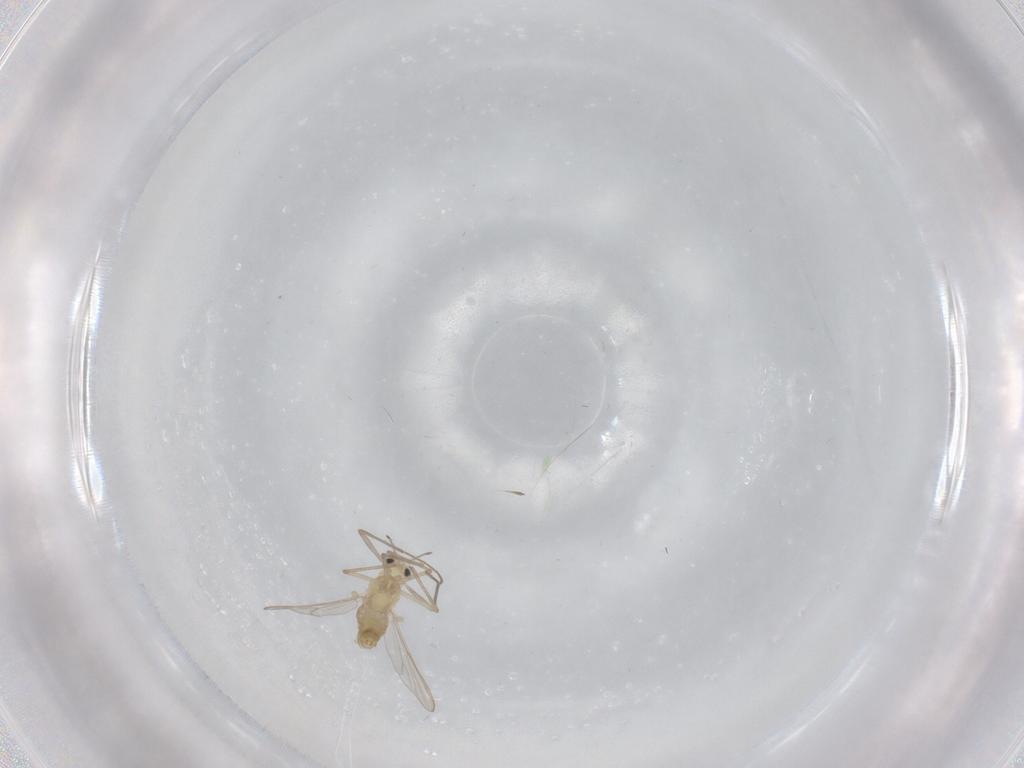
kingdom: Animalia
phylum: Arthropoda
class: Insecta
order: Diptera
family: Chironomidae
